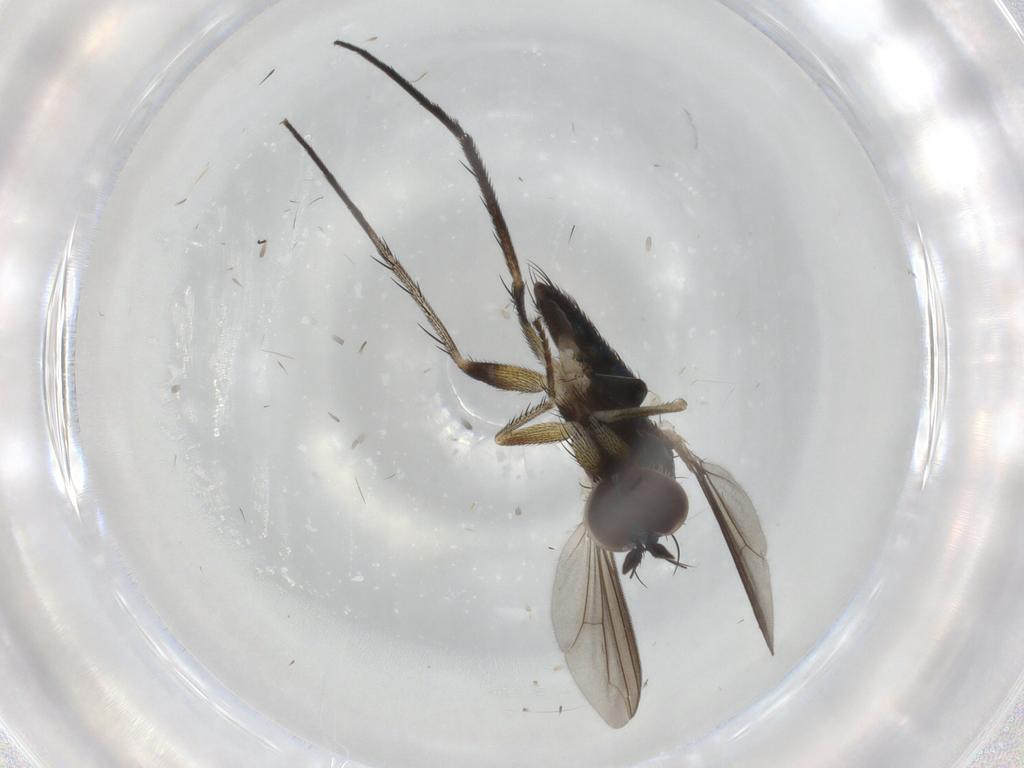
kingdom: Animalia
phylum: Arthropoda
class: Insecta
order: Diptera
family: Dolichopodidae
